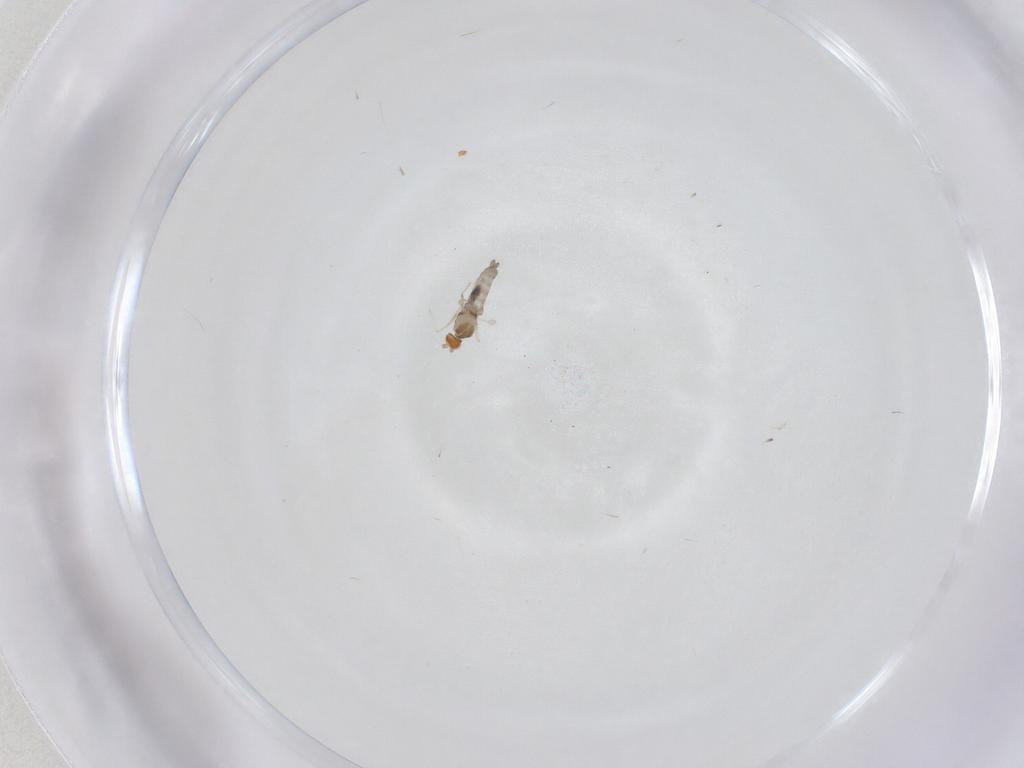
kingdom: Animalia
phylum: Arthropoda
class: Insecta
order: Diptera
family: Cecidomyiidae
